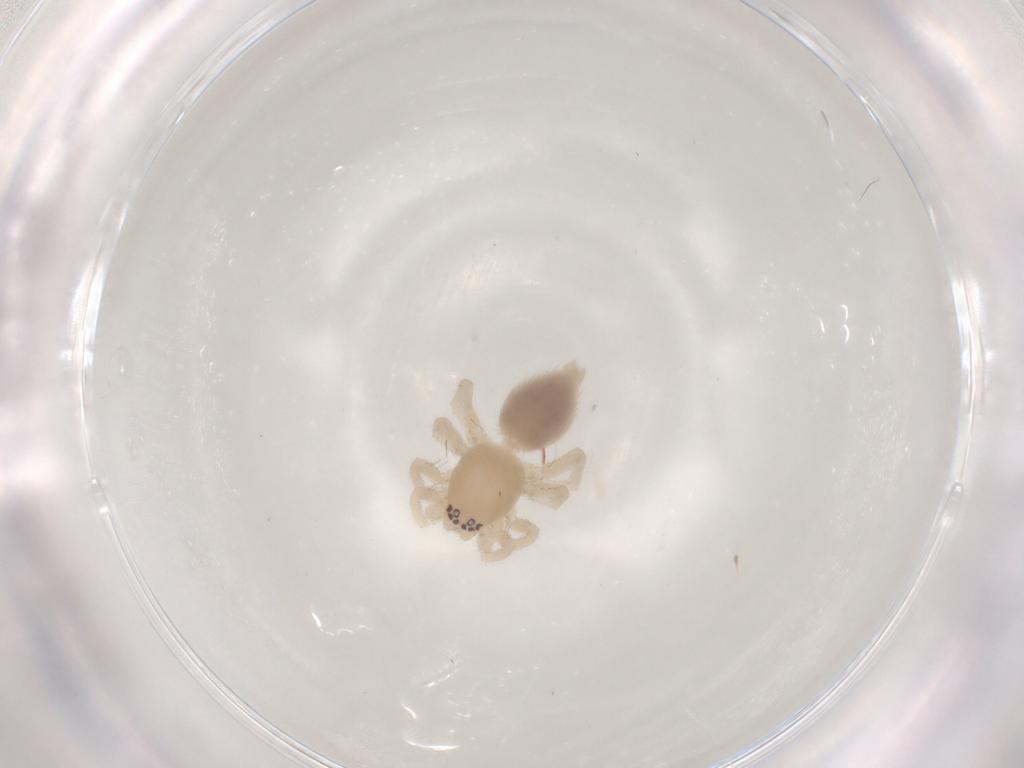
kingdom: Animalia
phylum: Arthropoda
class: Arachnida
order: Araneae
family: Clubionidae
